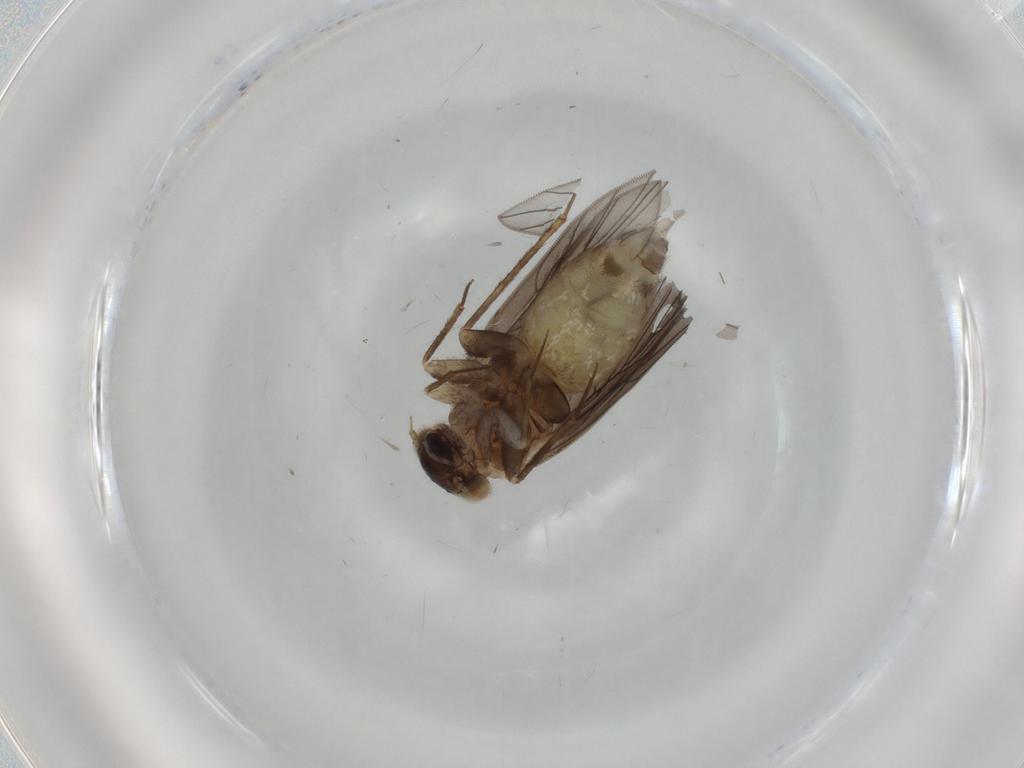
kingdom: Animalia
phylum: Arthropoda
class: Insecta
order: Psocodea
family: Lepidopsocidae
